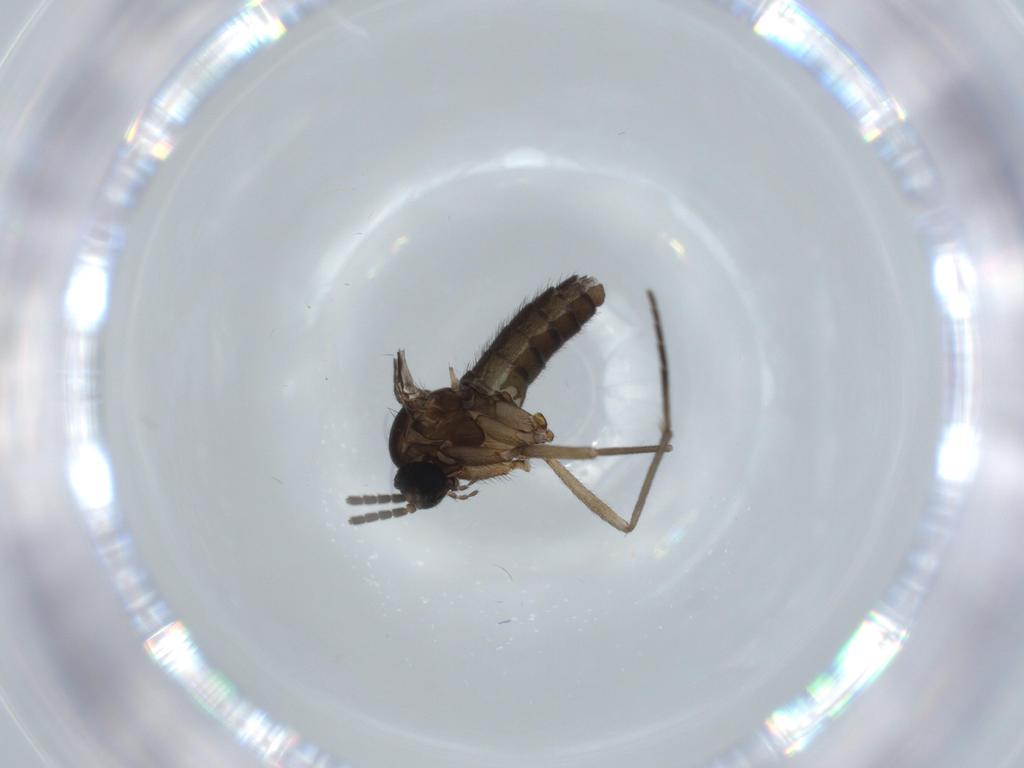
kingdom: Animalia
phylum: Arthropoda
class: Insecta
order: Diptera
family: Sciaridae
